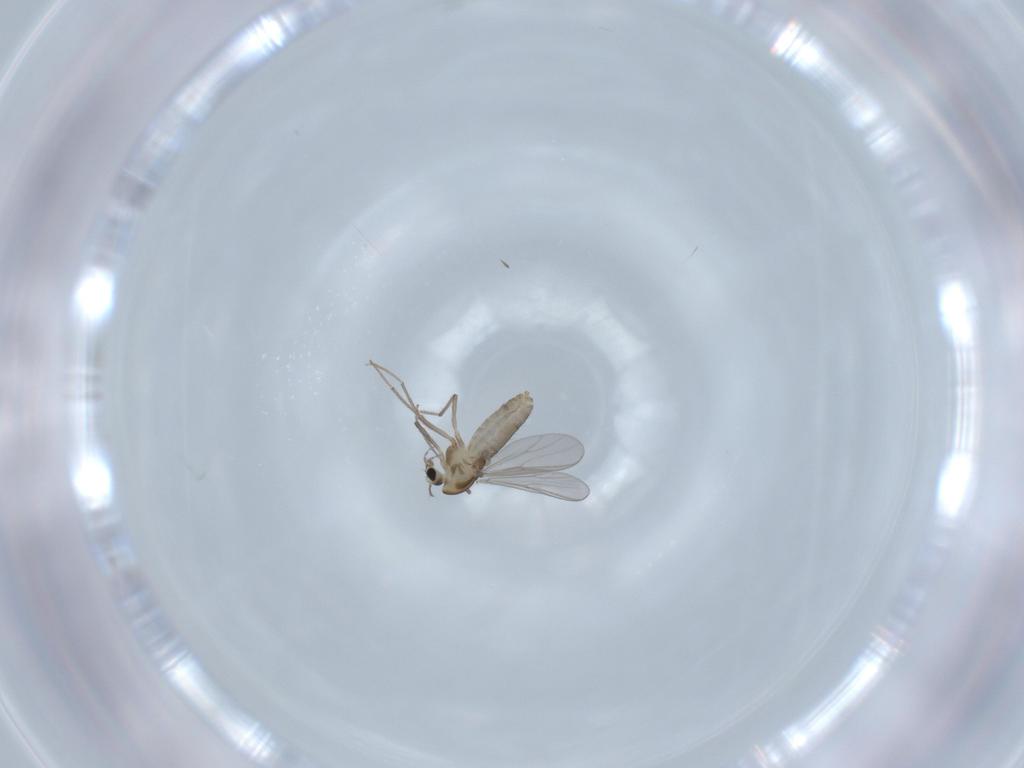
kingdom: Animalia
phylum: Arthropoda
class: Insecta
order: Diptera
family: Chironomidae
